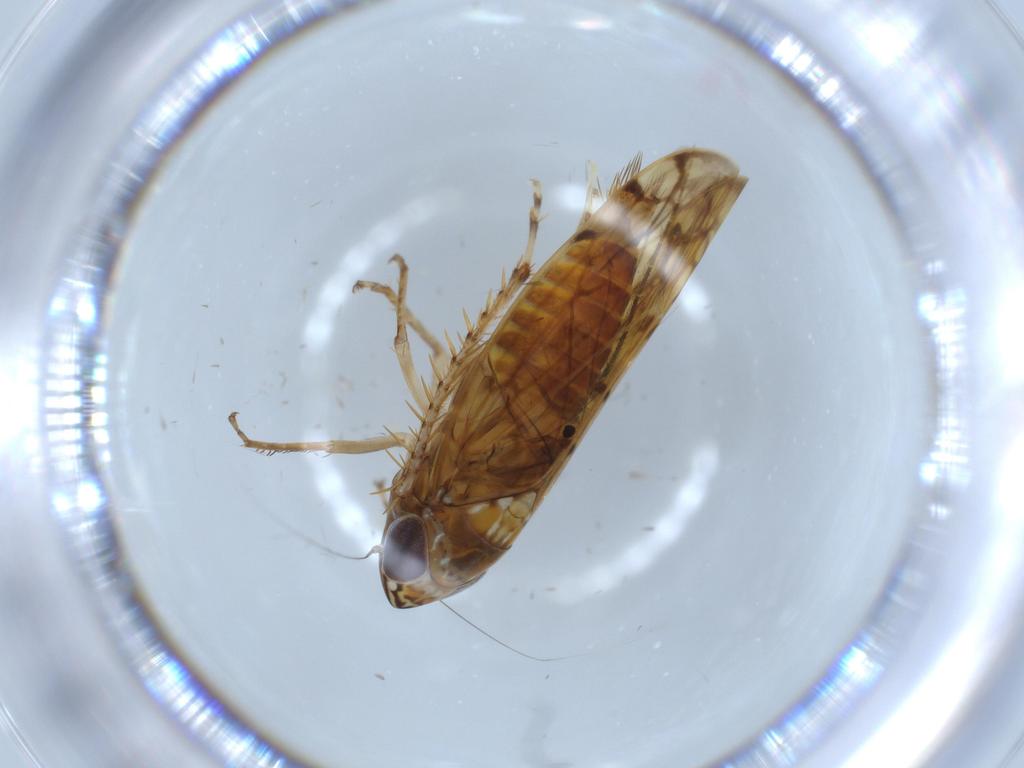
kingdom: Animalia
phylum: Arthropoda
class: Insecta
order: Hemiptera
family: Cicadellidae
